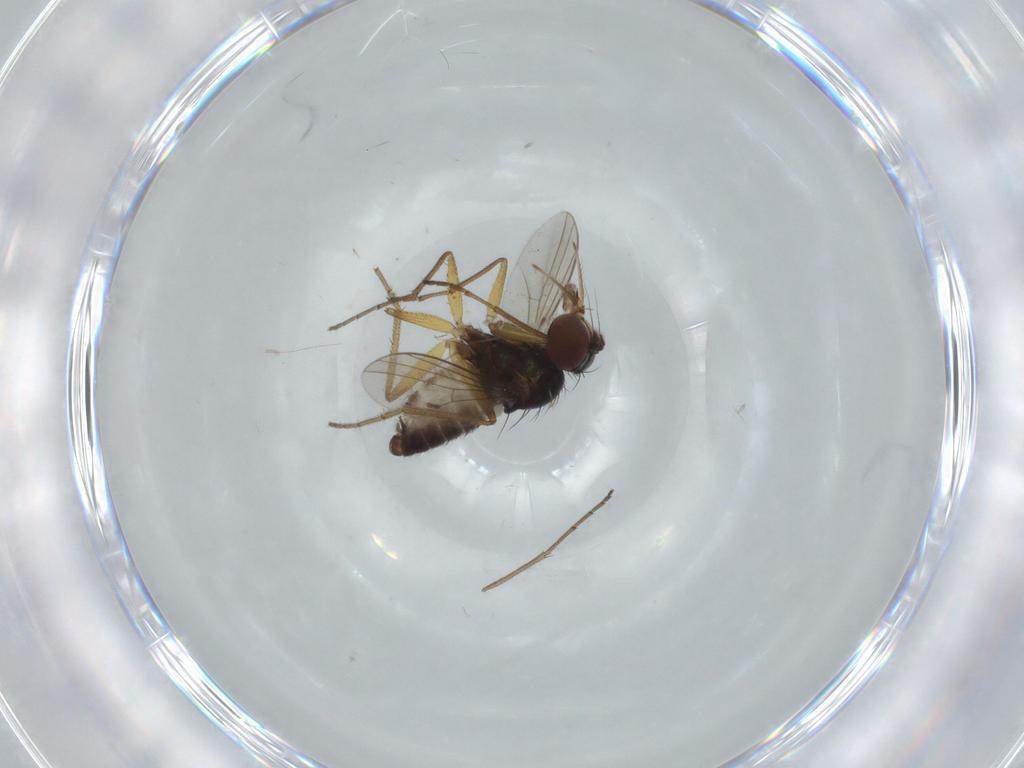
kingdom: Animalia
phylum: Arthropoda
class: Insecta
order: Diptera
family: Dolichopodidae
